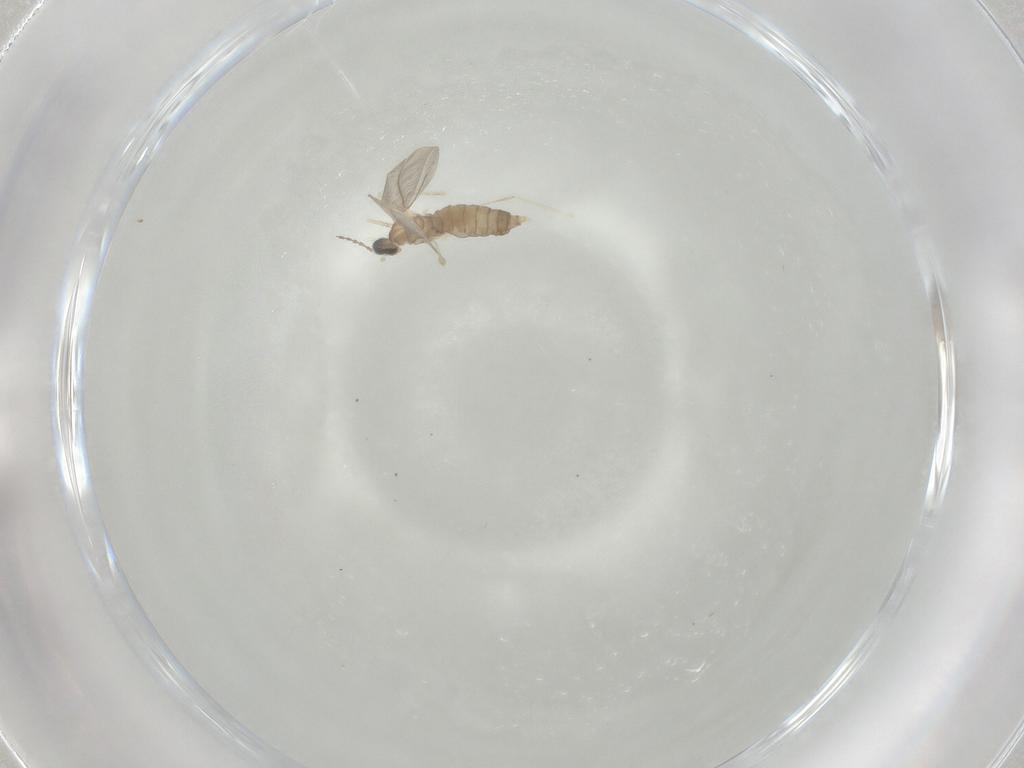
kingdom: Animalia
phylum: Arthropoda
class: Insecta
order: Diptera
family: Cecidomyiidae
